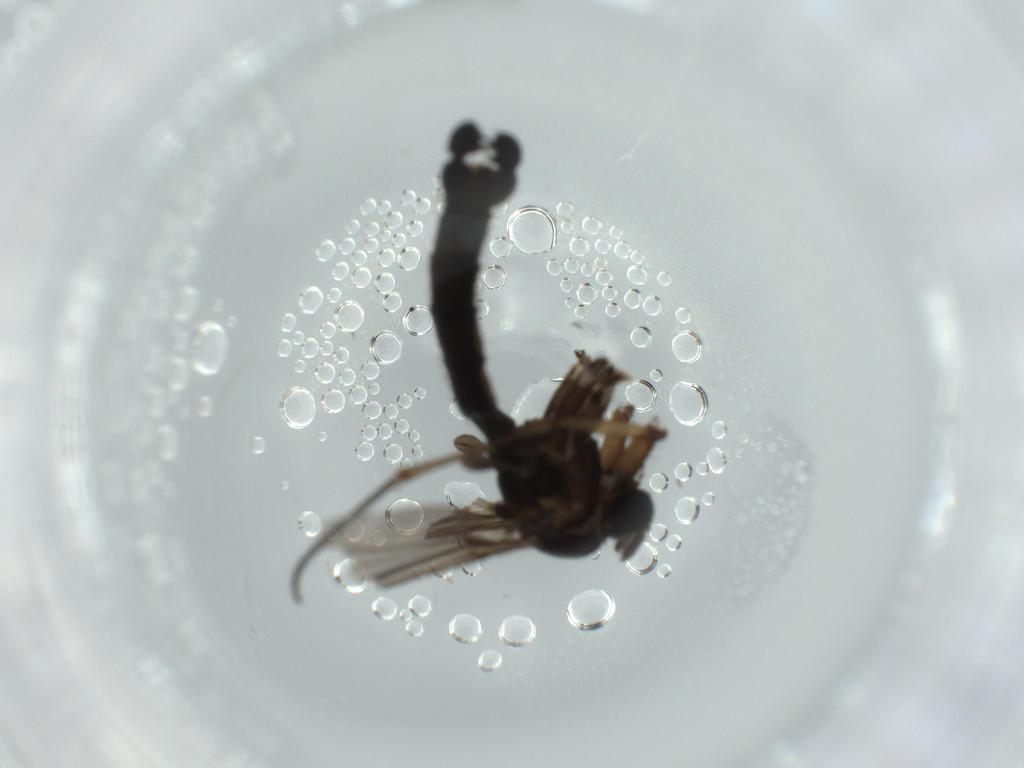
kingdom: Animalia
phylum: Arthropoda
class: Insecta
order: Diptera
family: Sciaridae
